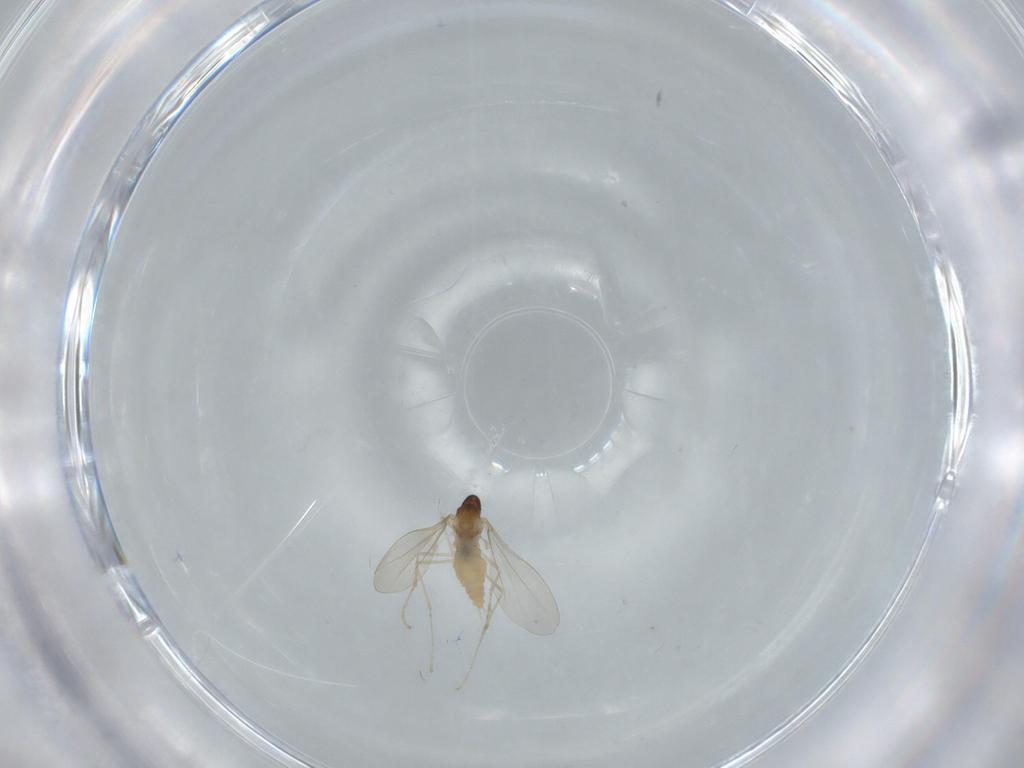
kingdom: Animalia
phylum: Arthropoda
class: Insecta
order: Diptera
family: Cecidomyiidae
